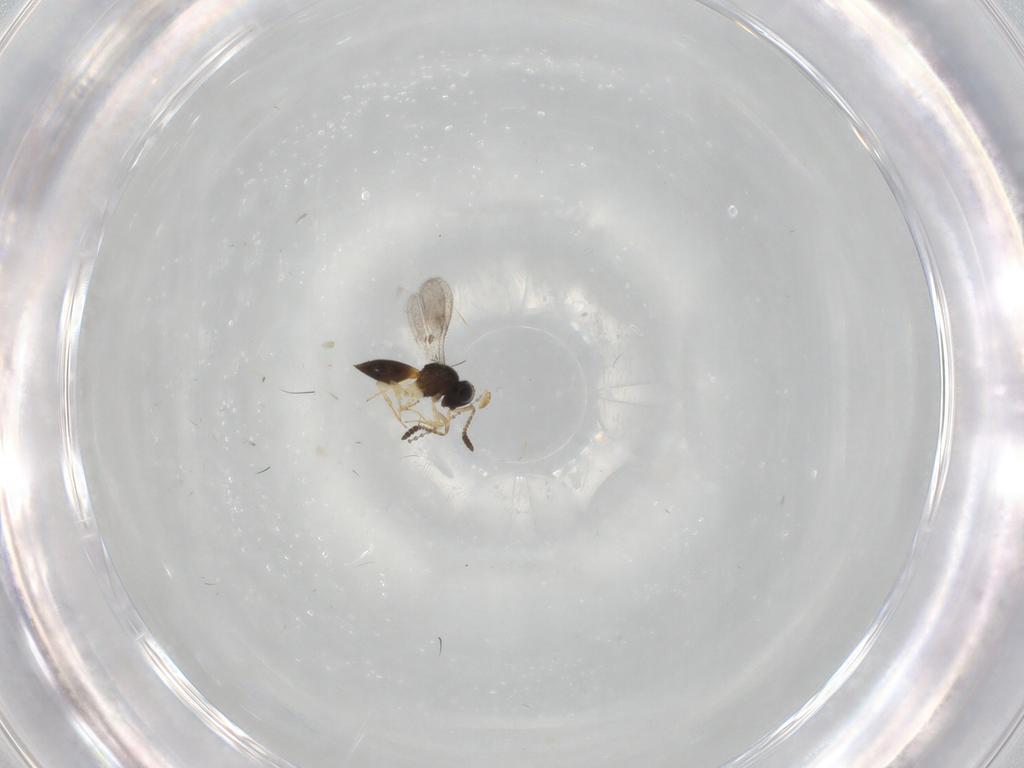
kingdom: Animalia
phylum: Arthropoda
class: Insecta
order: Hymenoptera
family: Scelionidae
